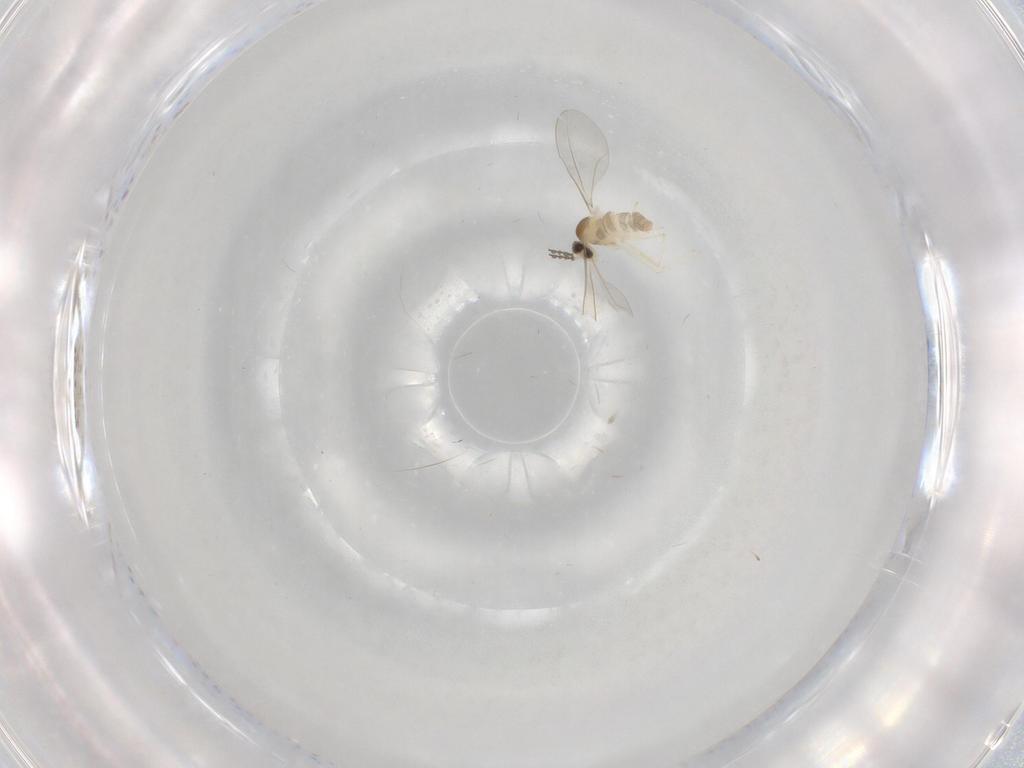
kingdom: Animalia
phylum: Arthropoda
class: Insecta
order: Diptera
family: Cecidomyiidae
